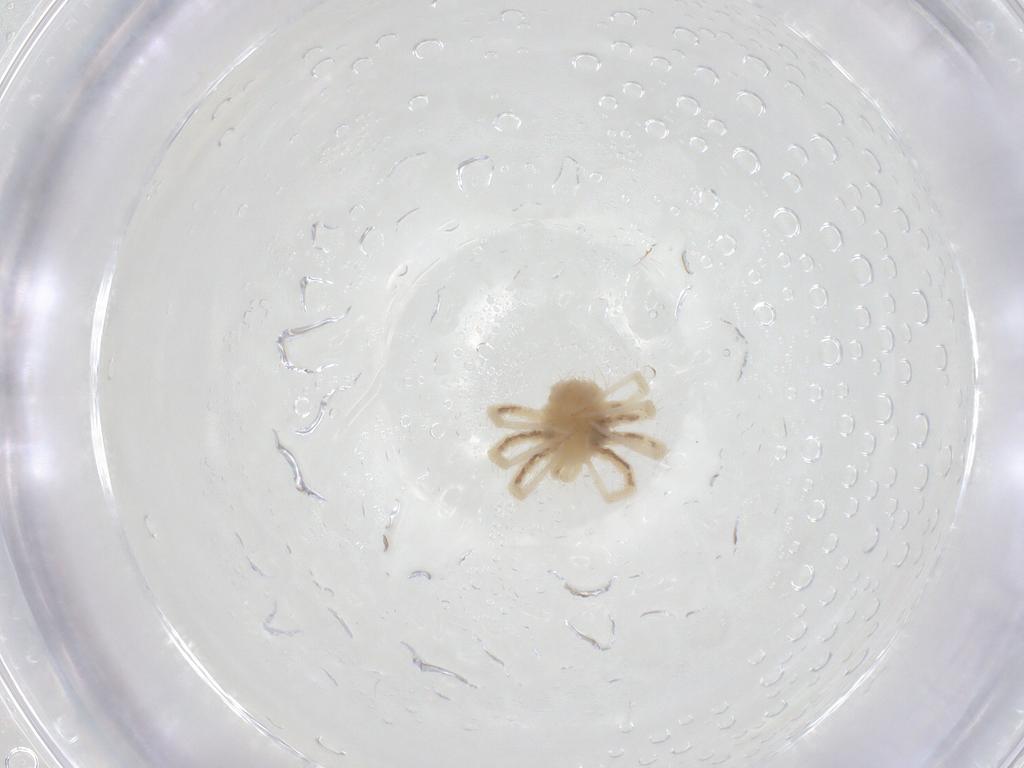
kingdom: Animalia
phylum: Arthropoda
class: Arachnida
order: Trombidiformes
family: Anystidae
